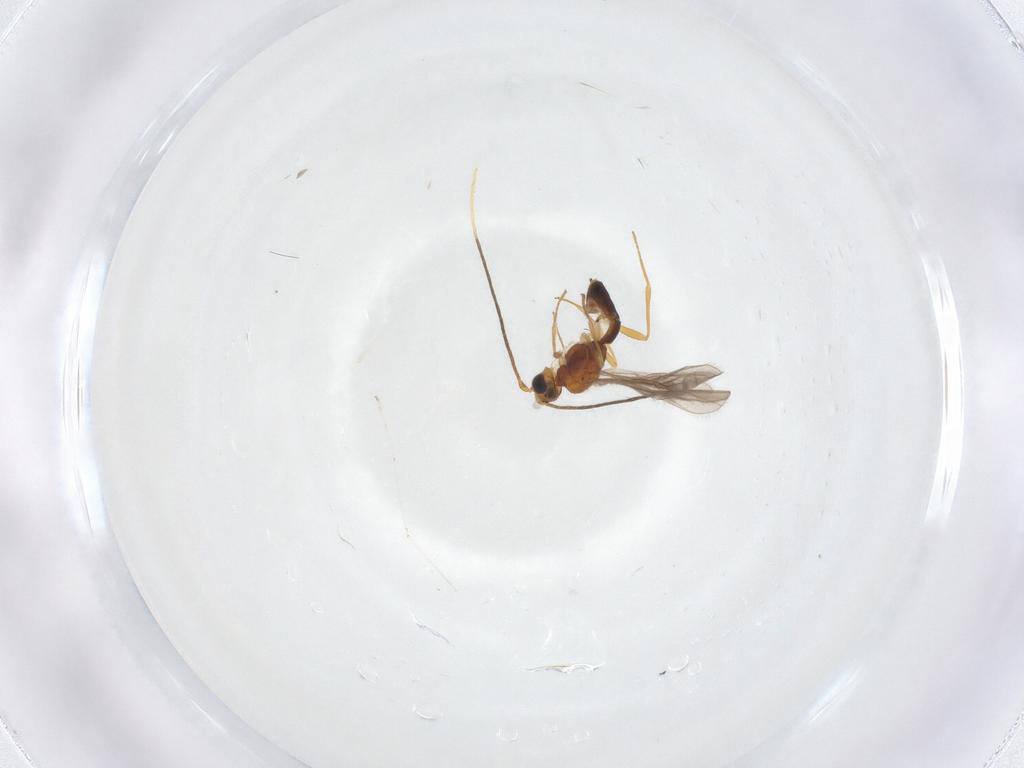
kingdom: Animalia
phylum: Arthropoda
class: Insecta
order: Hymenoptera
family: Braconidae
